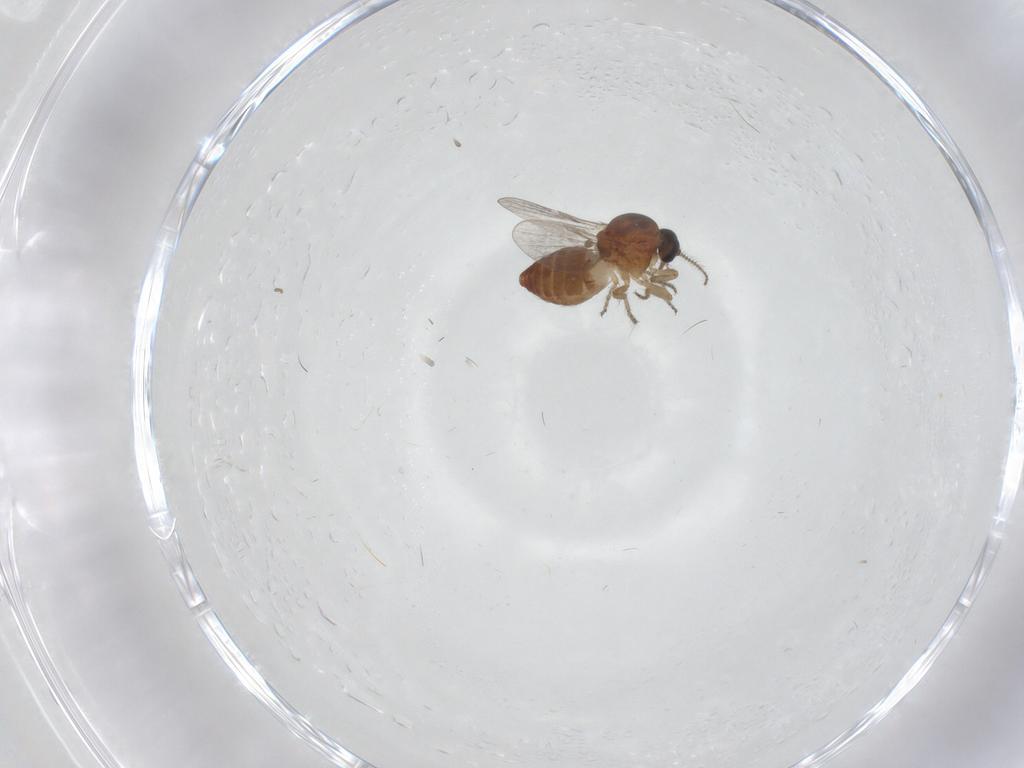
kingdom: Animalia
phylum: Arthropoda
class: Insecta
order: Diptera
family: Ceratopogonidae
